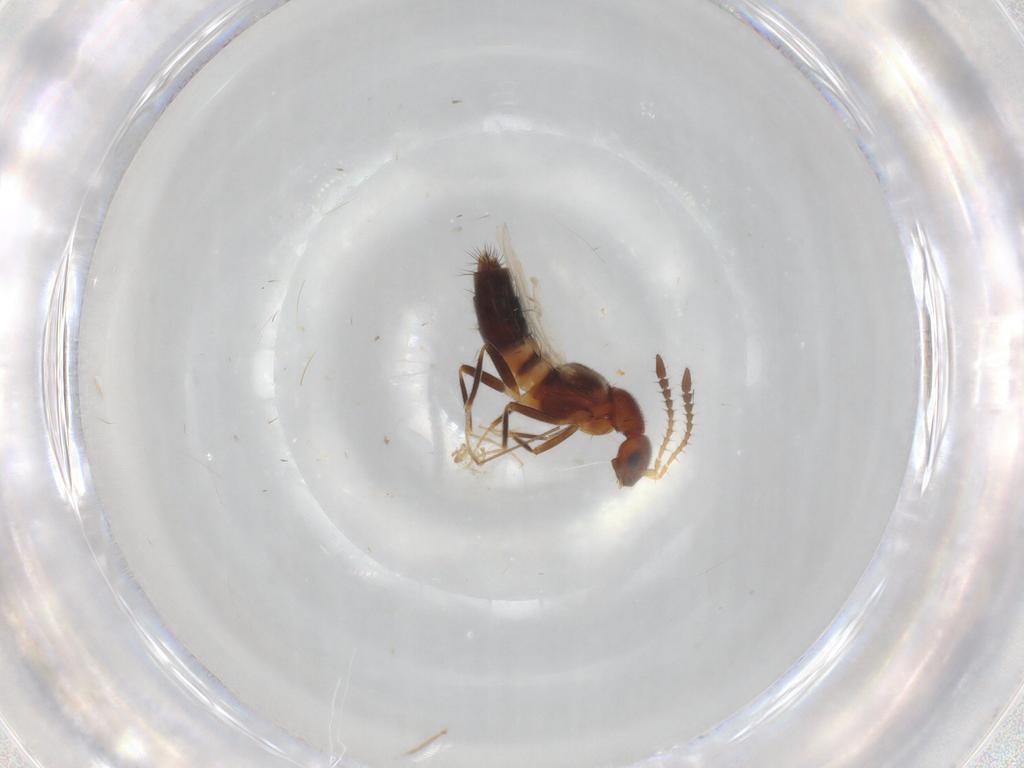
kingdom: Animalia
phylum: Arthropoda
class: Insecta
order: Coleoptera
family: Staphylinidae
